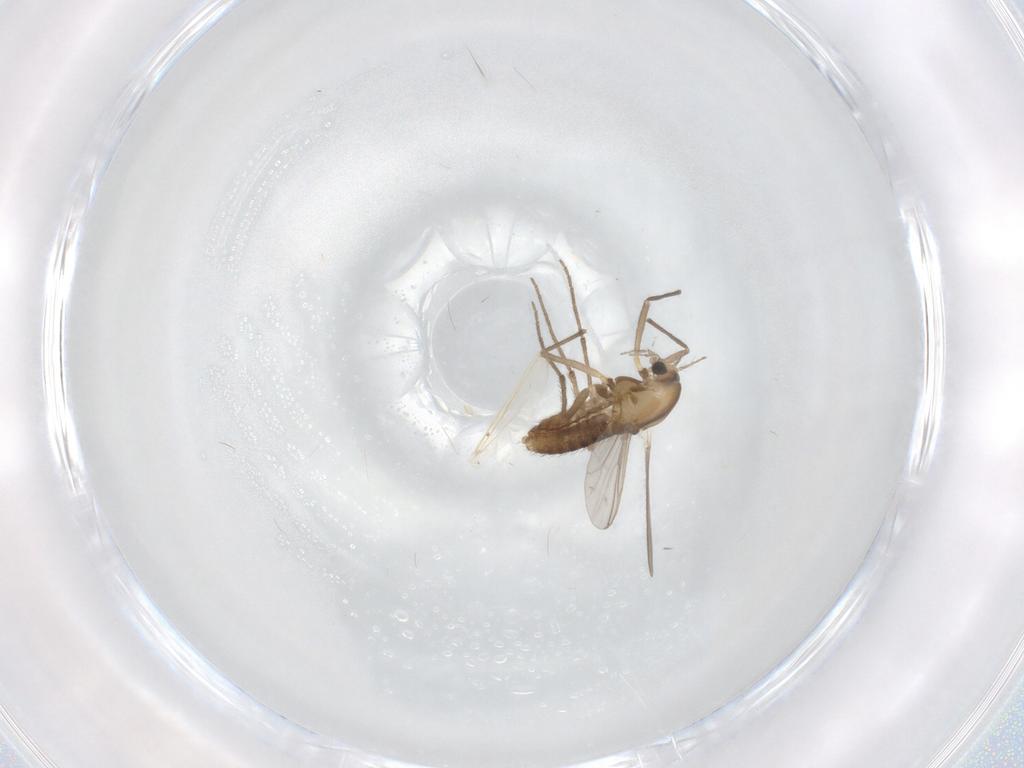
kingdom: Animalia
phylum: Arthropoda
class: Insecta
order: Diptera
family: Chironomidae
